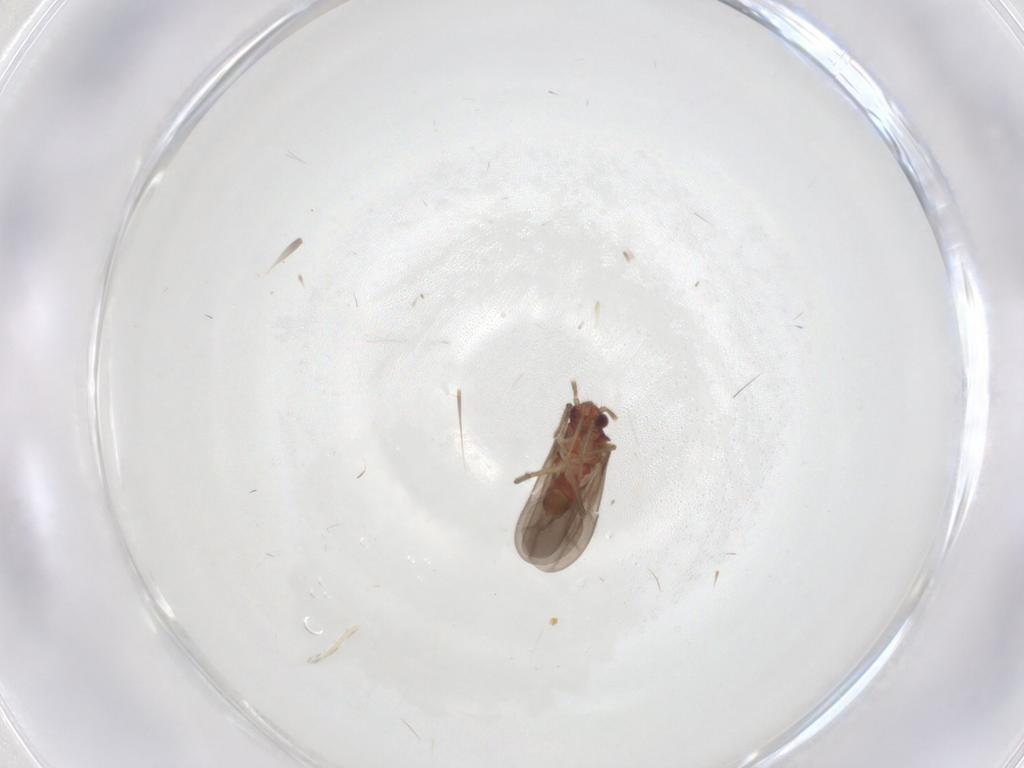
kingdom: Animalia
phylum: Arthropoda
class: Insecta
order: Hemiptera
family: Ceratocombidae
